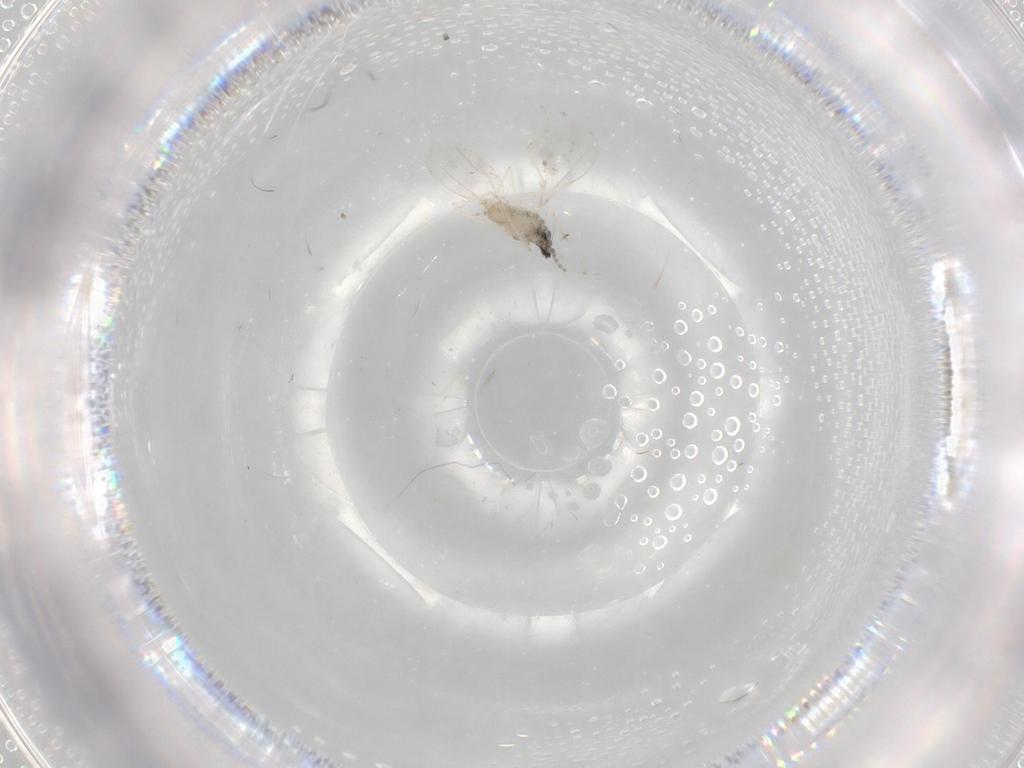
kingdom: Animalia
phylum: Arthropoda
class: Insecta
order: Diptera
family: Cecidomyiidae
